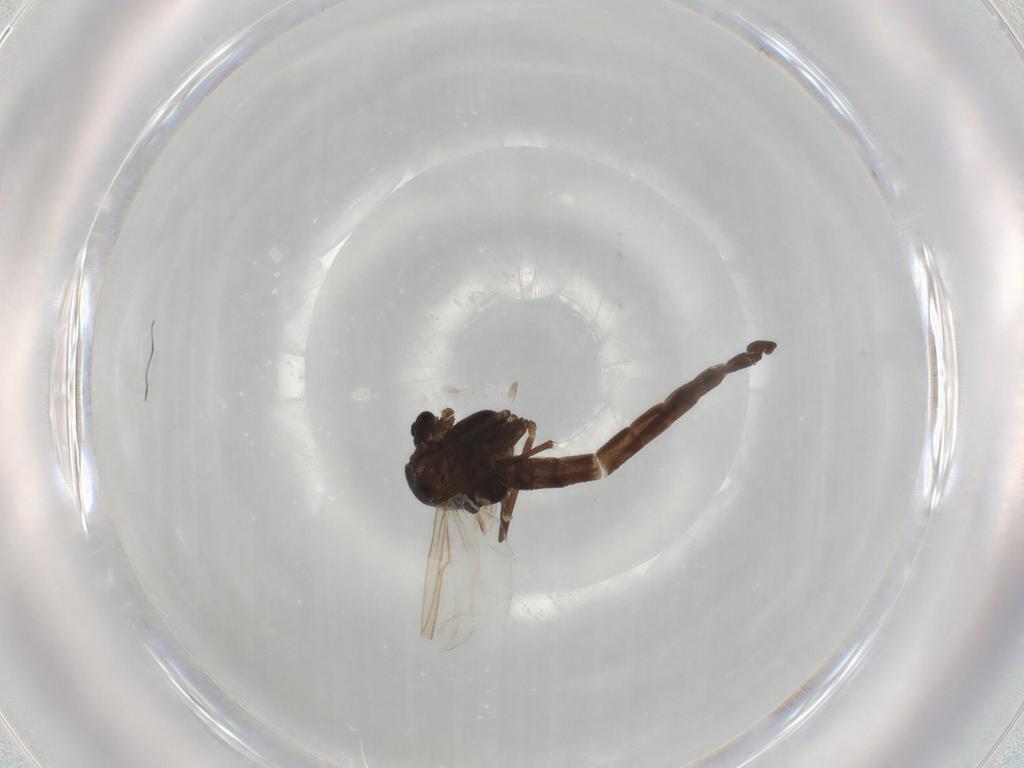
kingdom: Animalia
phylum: Arthropoda
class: Insecta
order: Diptera
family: Chironomidae
